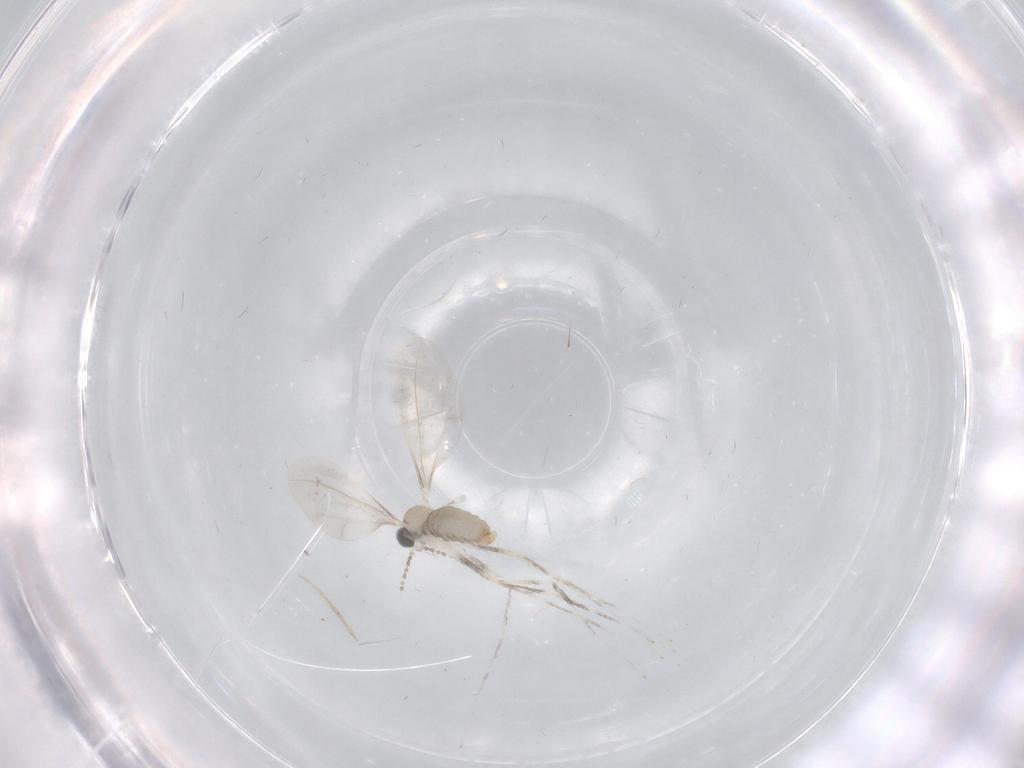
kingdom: Animalia
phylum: Arthropoda
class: Insecta
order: Diptera
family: Cecidomyiidae
